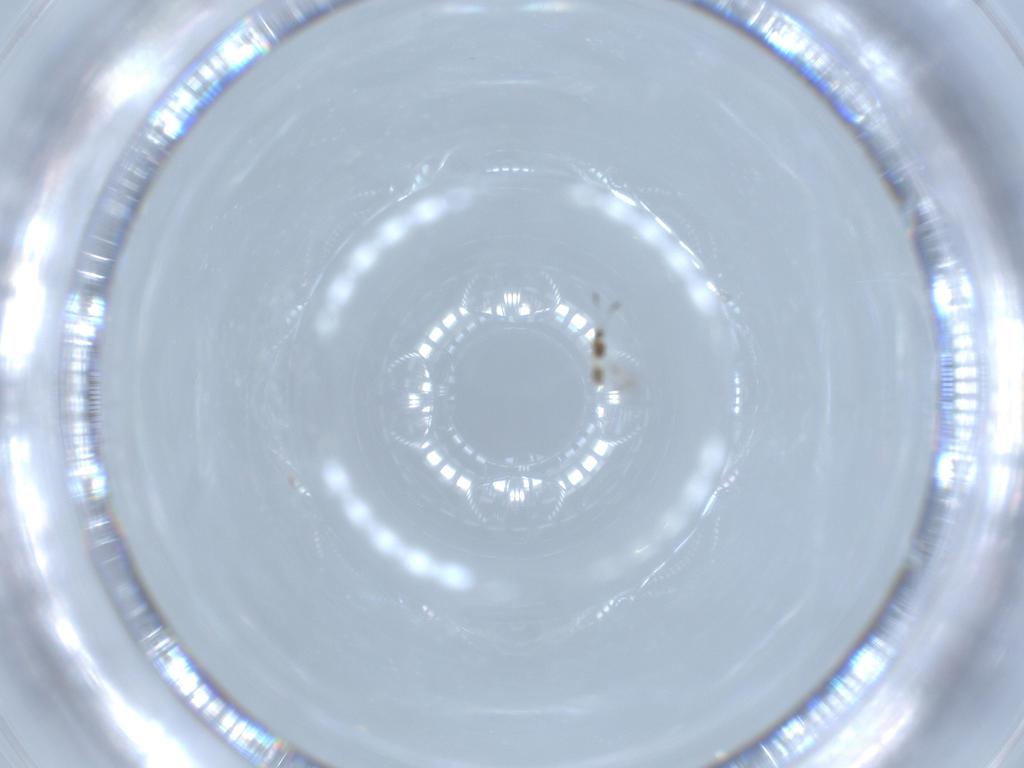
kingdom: Animalia
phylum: Arthropoda
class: Insecta
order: Hymenoptera
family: Mymarommatidae
